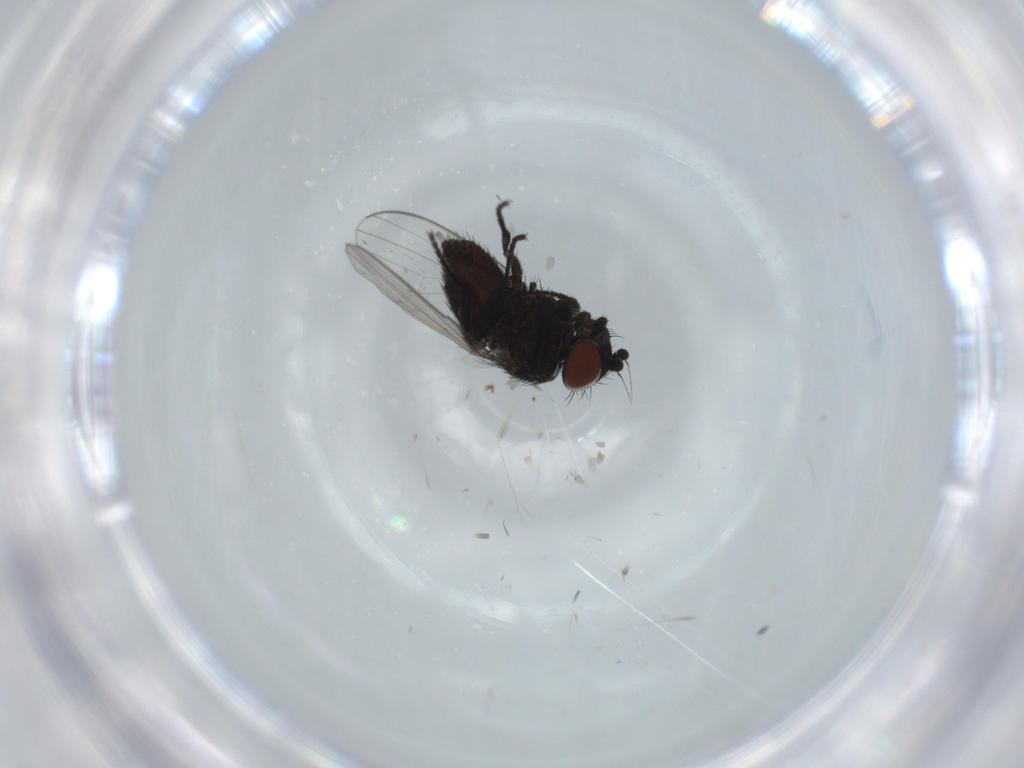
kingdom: Animalia
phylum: Arthropoda
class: Insecta
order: Diptera
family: Milichiidae
